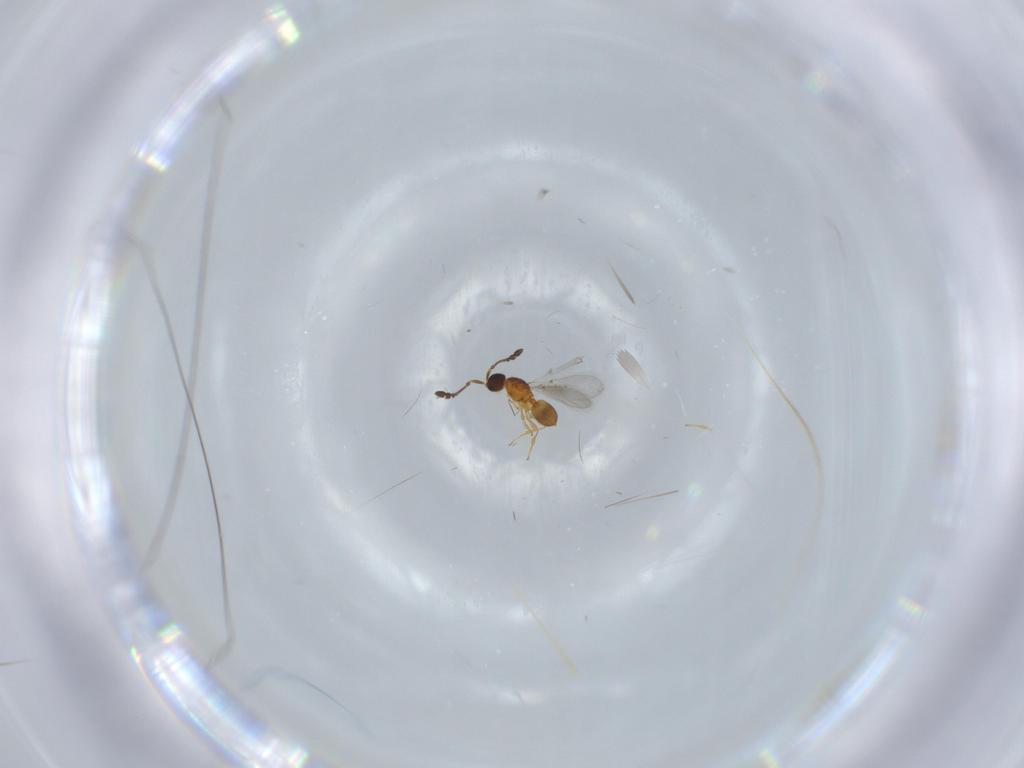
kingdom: Animalia
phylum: Arthropoda
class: Insecta
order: Hymenoptera
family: Diapriidae
